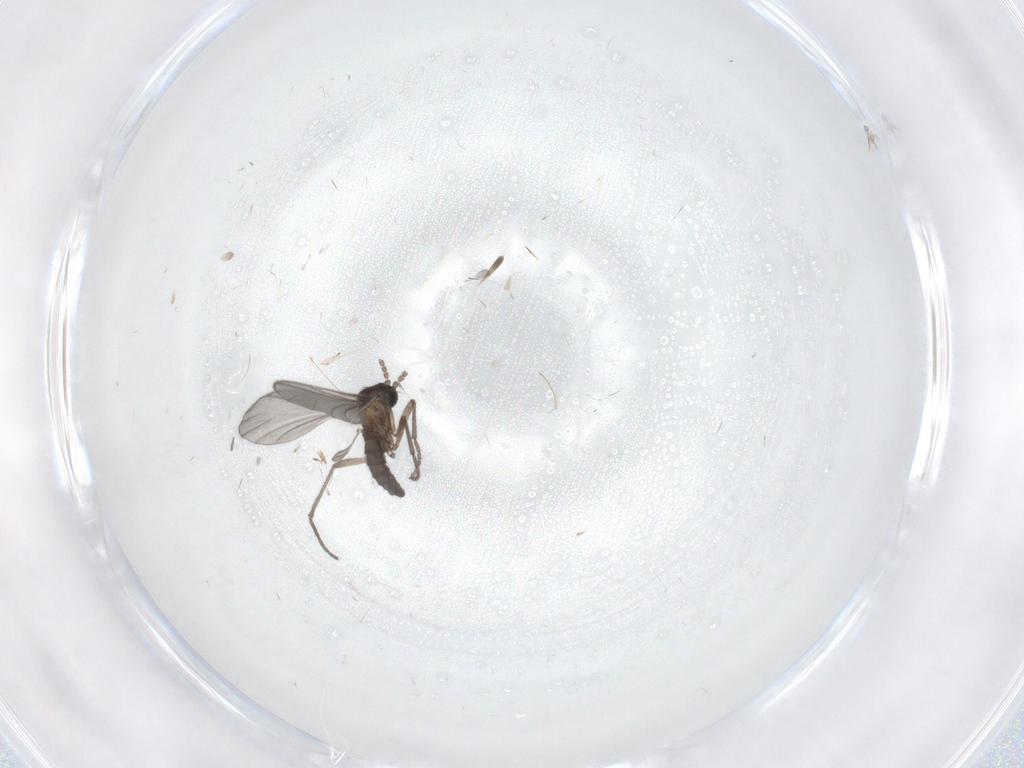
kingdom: Animalia
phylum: Arthropoda
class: Insecta
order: Diptera
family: Sciaridae
